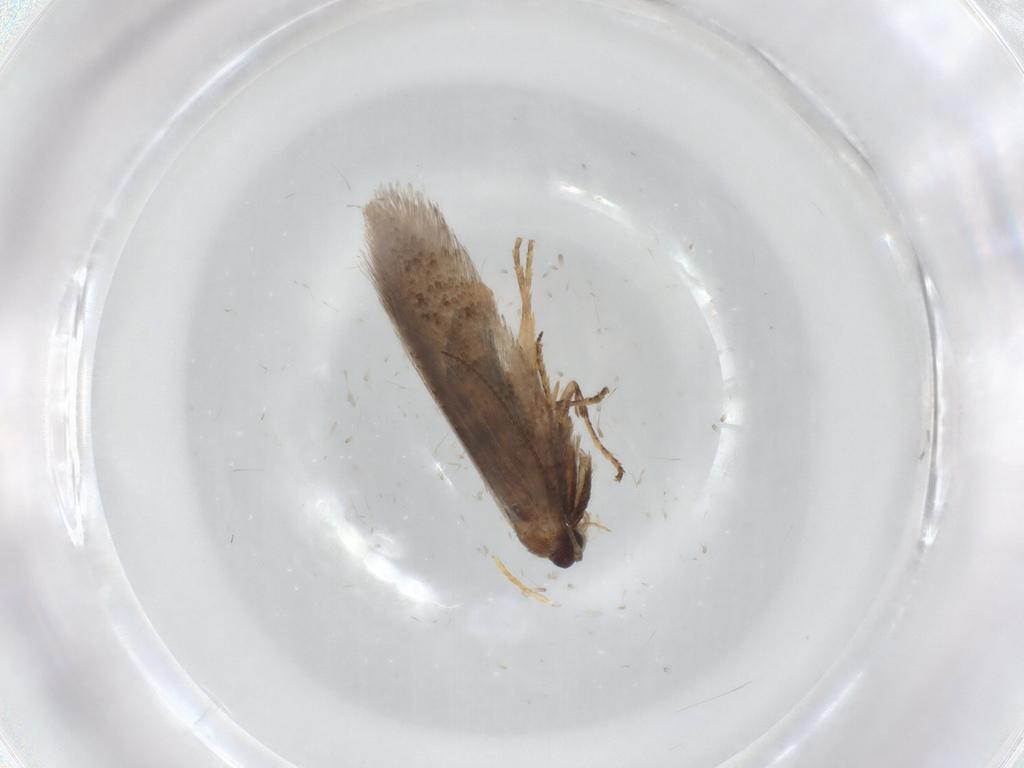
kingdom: Animalia
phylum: Arthropoda
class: Insecta
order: Lepidoptera
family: Nepticulidae
